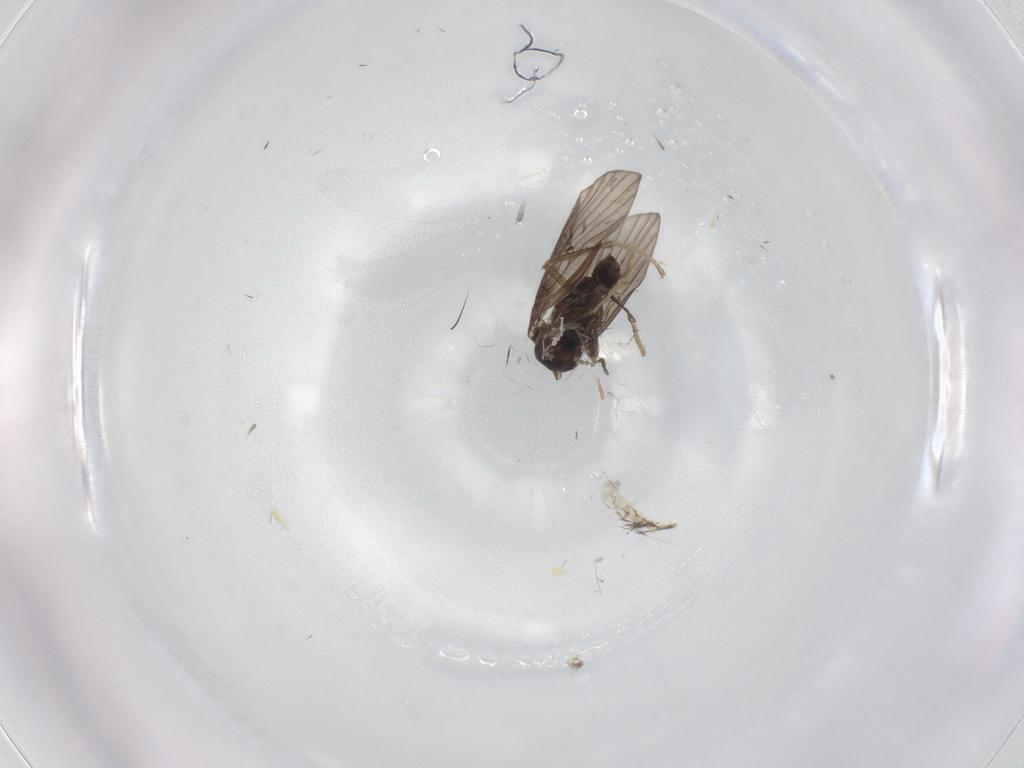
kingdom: Animalia
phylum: Arthropoda
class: Insecta
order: Diptera
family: Psychodidae
